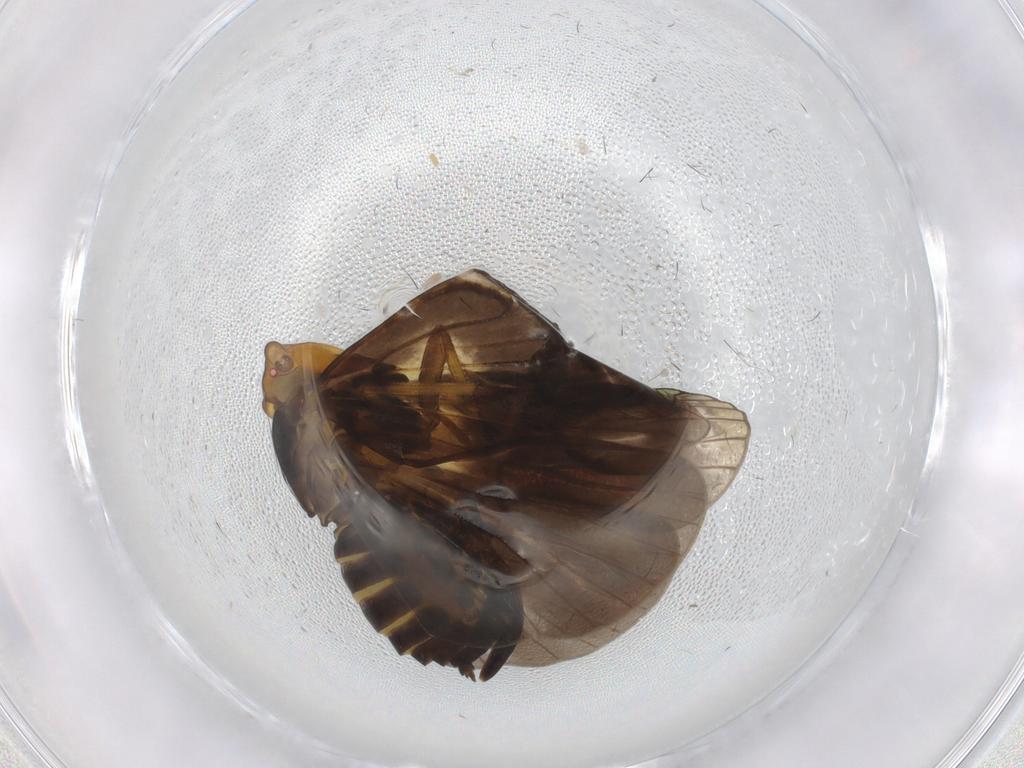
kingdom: Animalia
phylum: Arthropoda
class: Insecta
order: Hemiptera
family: Cixiidae
